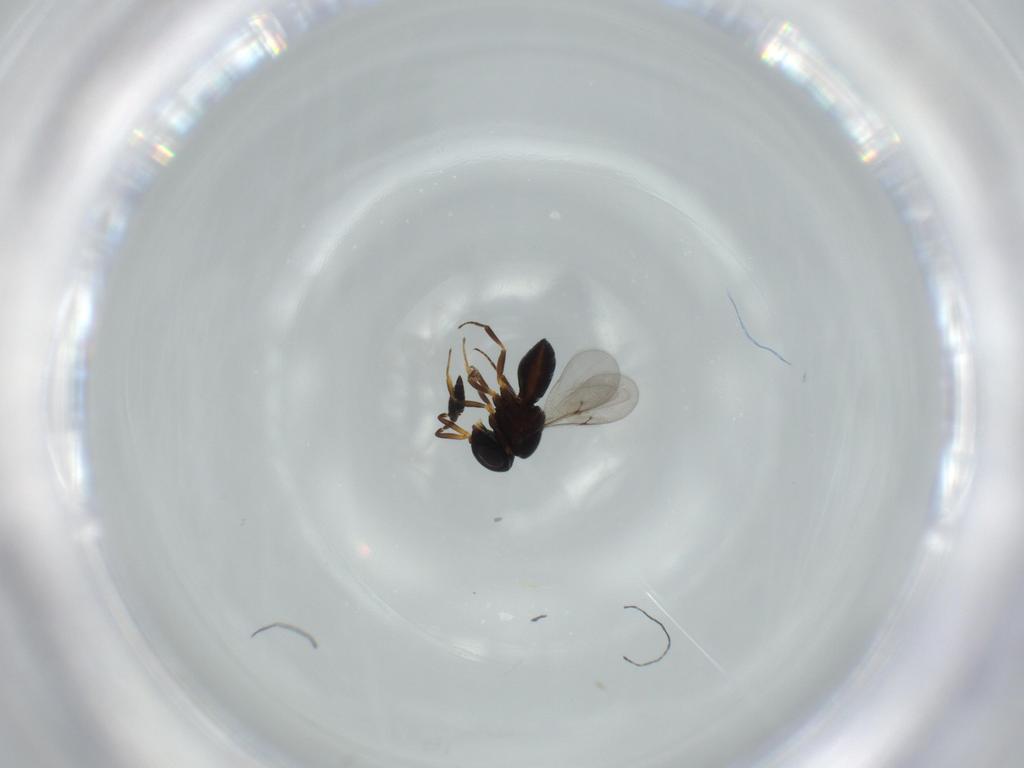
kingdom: Animalia
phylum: Arthropoda
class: Insecta
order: Hymenoptera
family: Scelionidae
